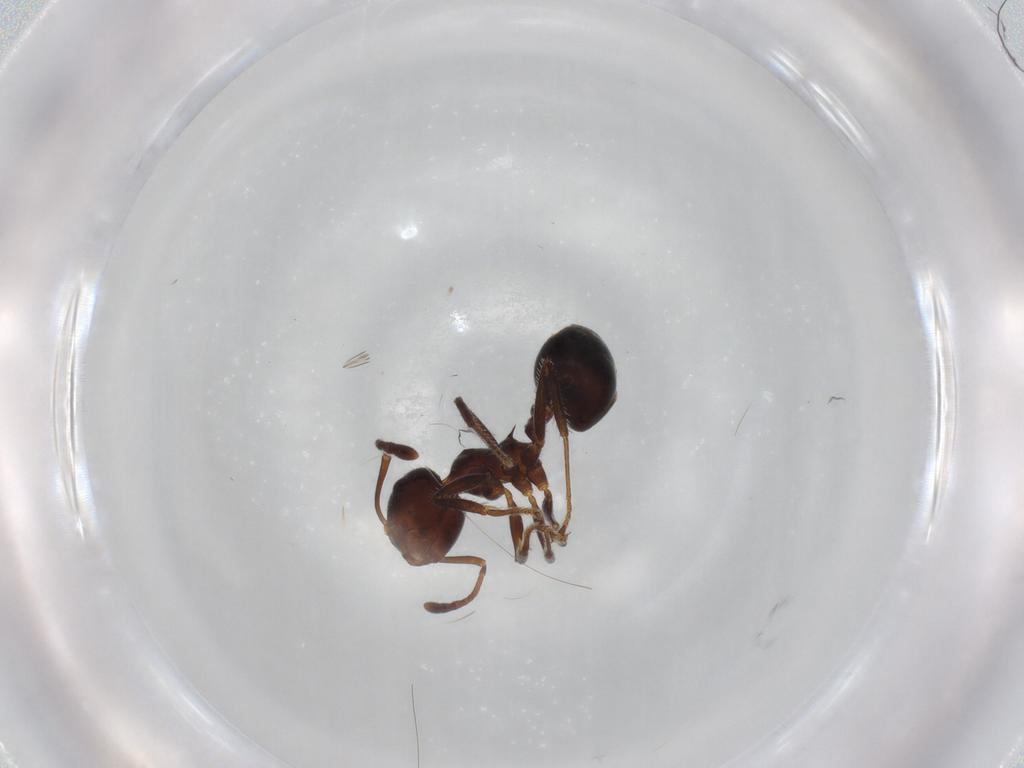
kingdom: Animalia
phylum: Arthropoda
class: Insecta
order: Hymenoptera
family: Formicidae
